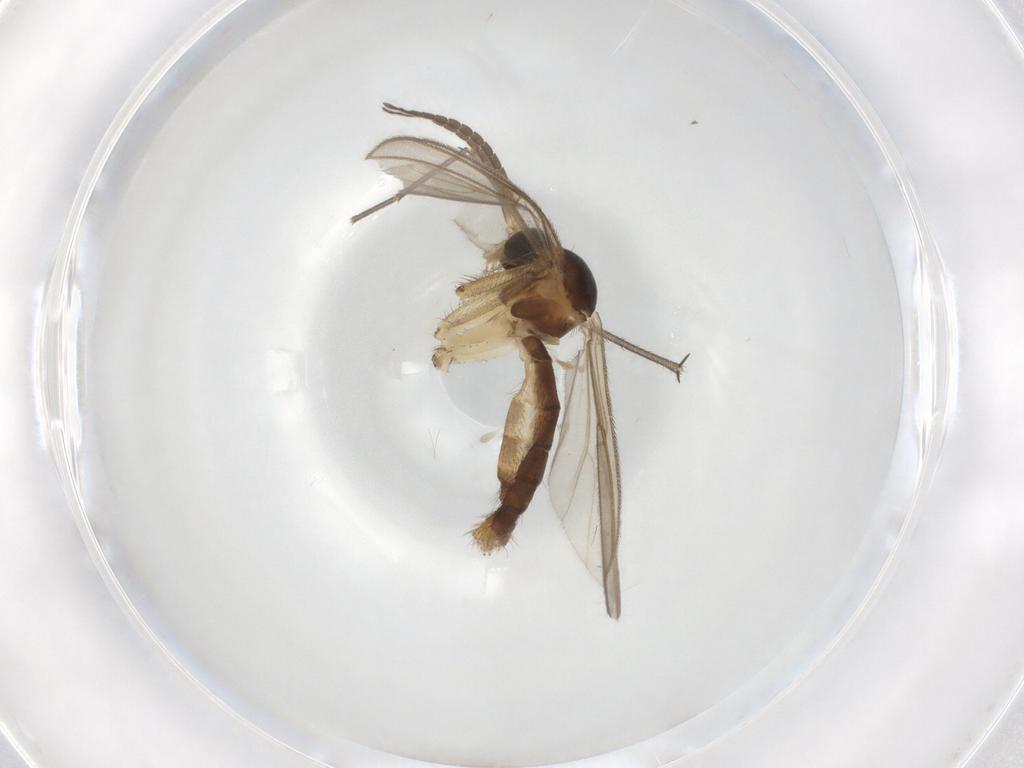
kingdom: Animalia
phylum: Arthropoda
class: Insecta
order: Diptera
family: Mycetophilidae
